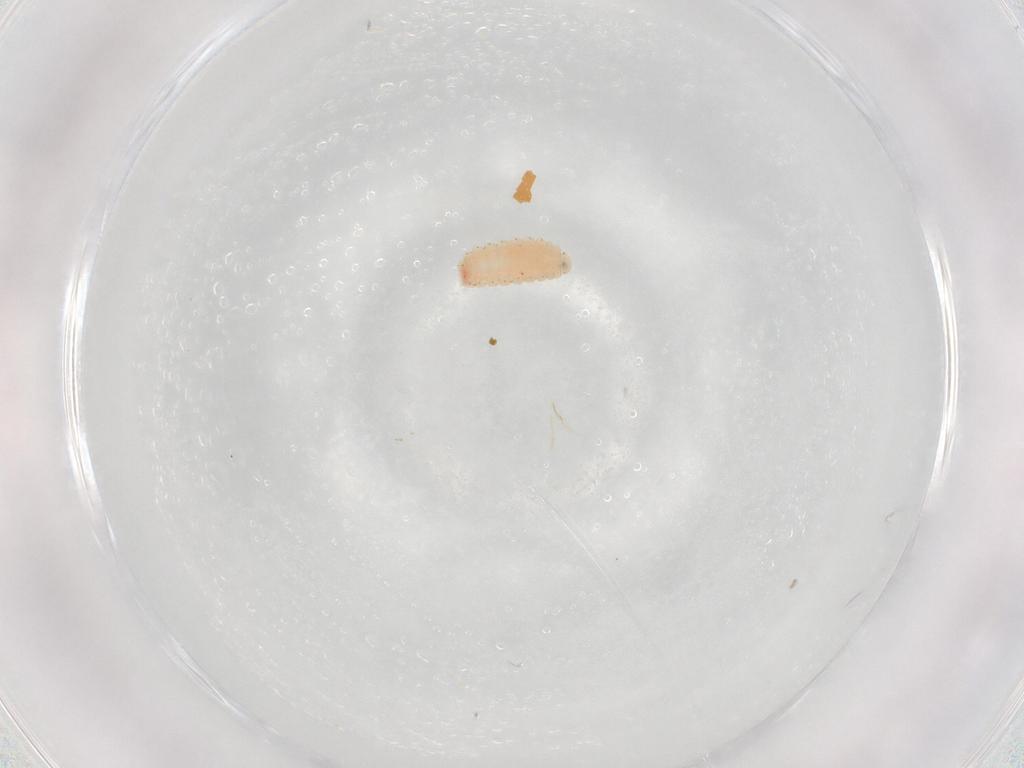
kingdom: Animalia
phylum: Arthropoda
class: Insecta
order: Diptera
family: Cecidomyiidae
